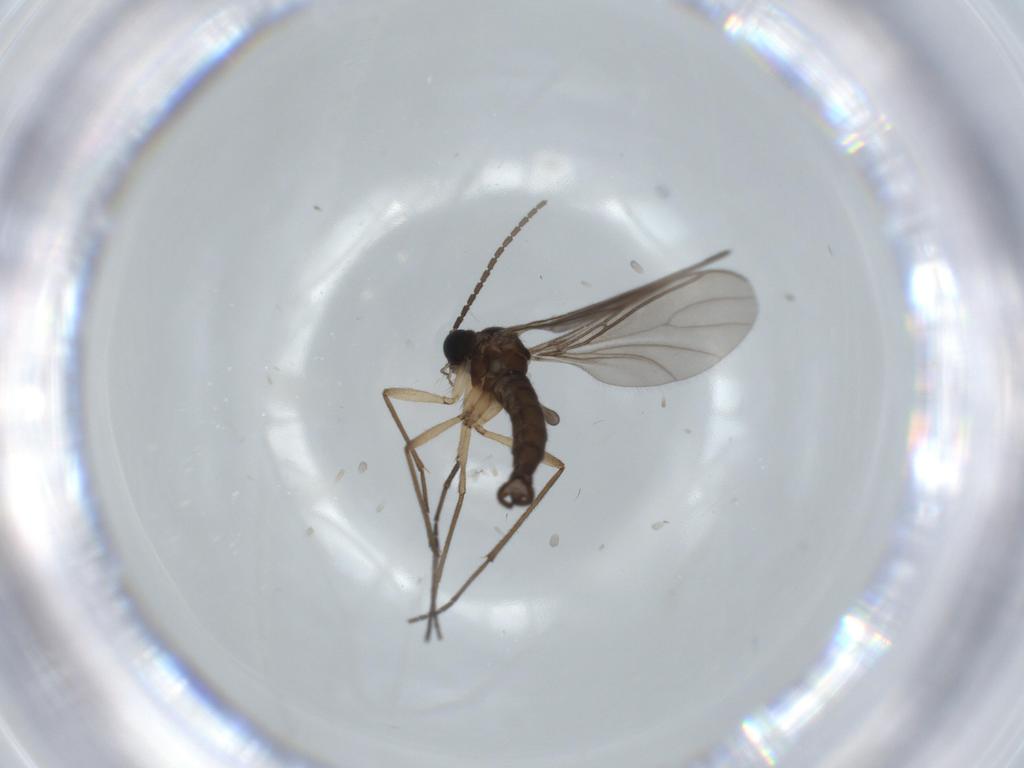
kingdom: Animalia
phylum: Arthropoda
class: Insecta
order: Diptera
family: Sciaridae
